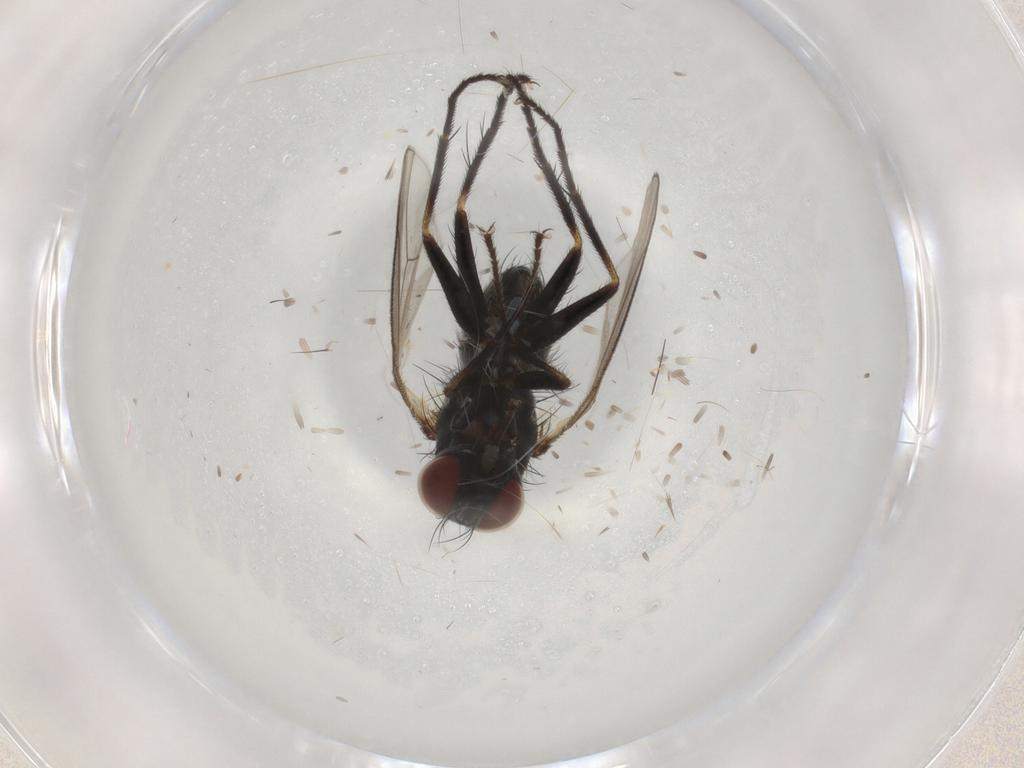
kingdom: Animalia
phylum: Arthropoda
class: Insecta
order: Diptera
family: Muscidae
